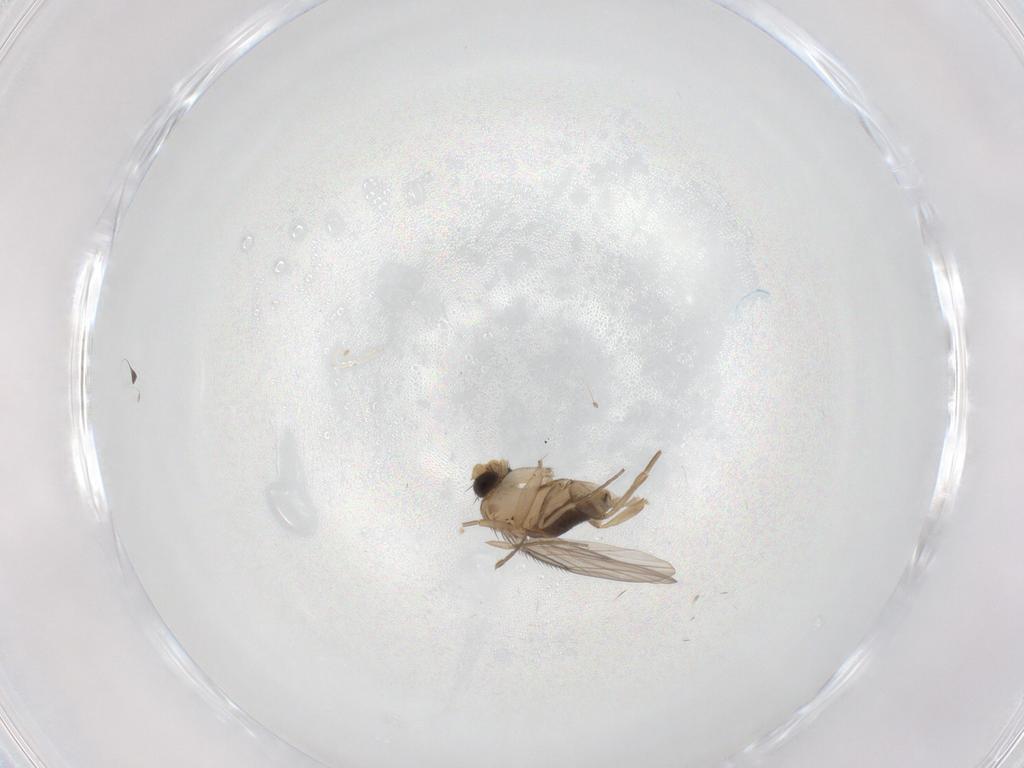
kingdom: Animalia
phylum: Arthropoda
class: Insecta
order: Diptera
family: Phoridae
